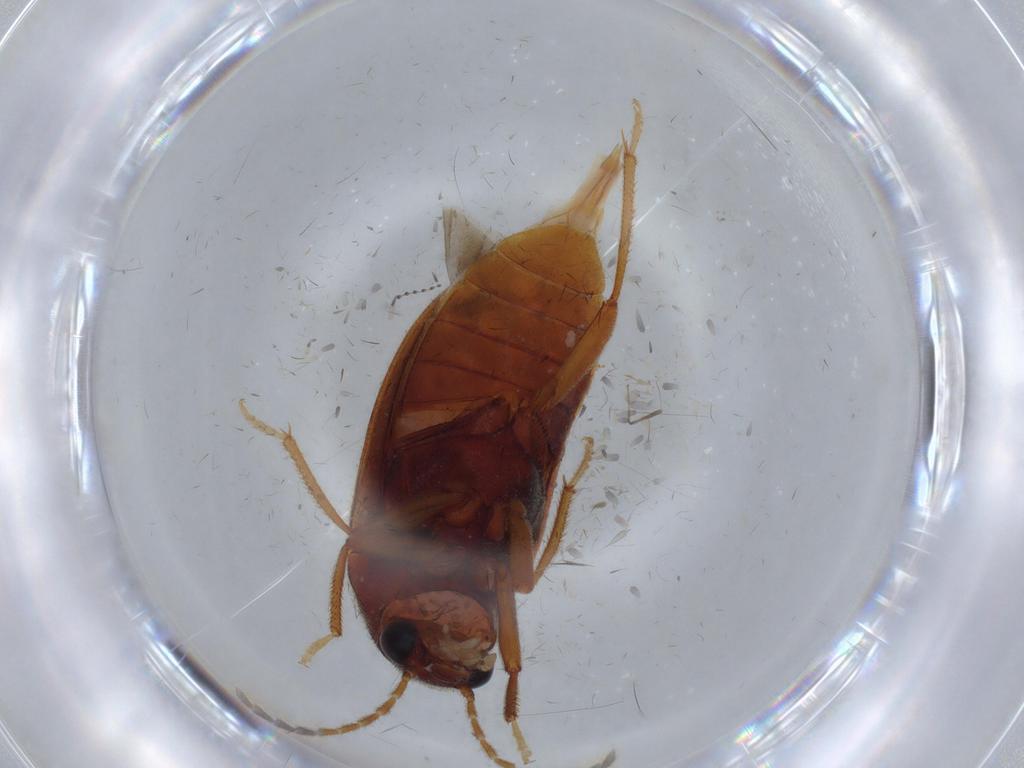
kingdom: Animalia
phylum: Arthropoda
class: Insecta
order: Coleoptera
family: Ptilodactylidae
